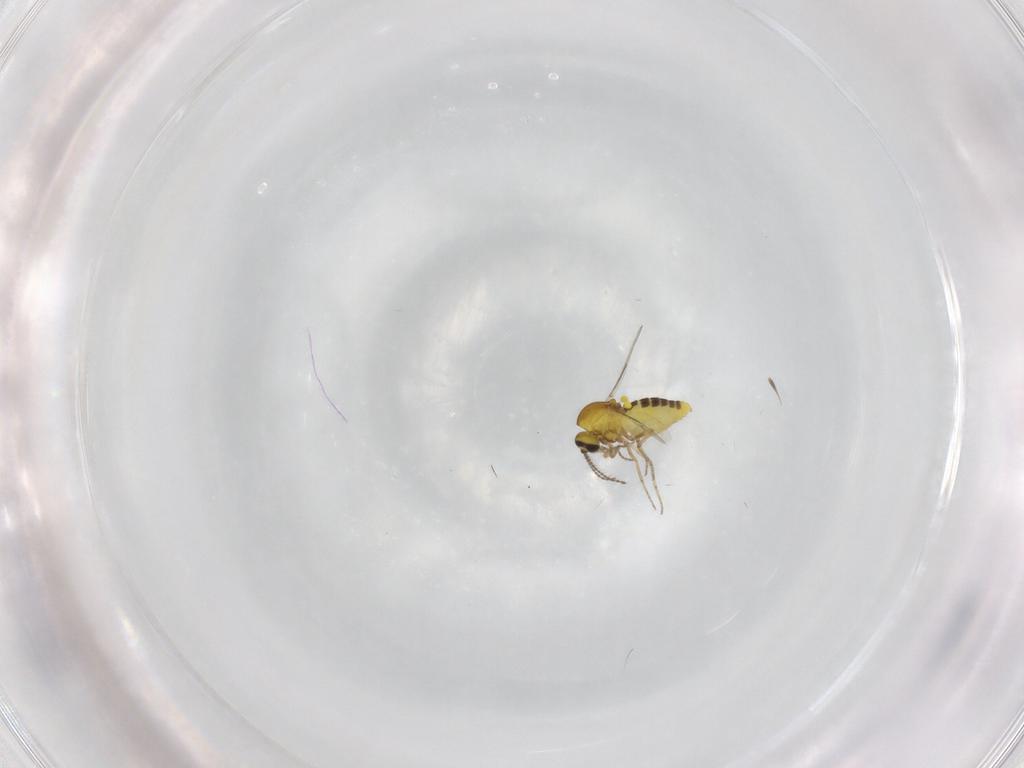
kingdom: Animalia
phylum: Arthropoda
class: Insecta
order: Diptera
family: Ceratopogonidae
